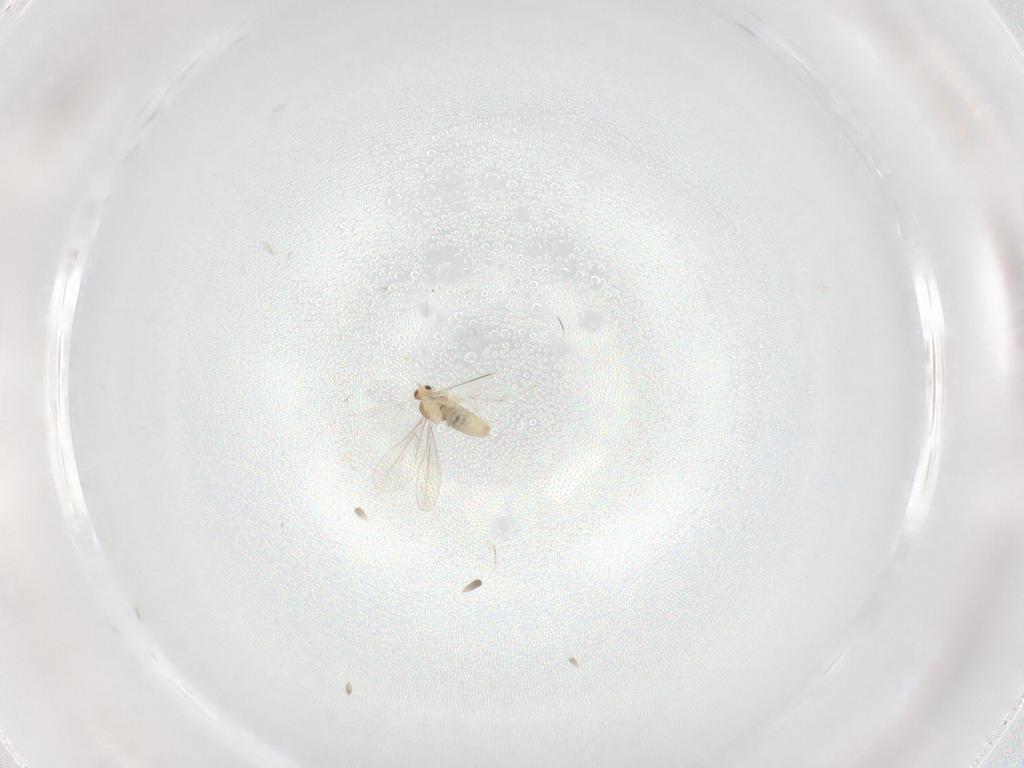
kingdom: Animalia
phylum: Arthropoda
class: Insecta
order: Diptera
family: Cecidomyiidae
